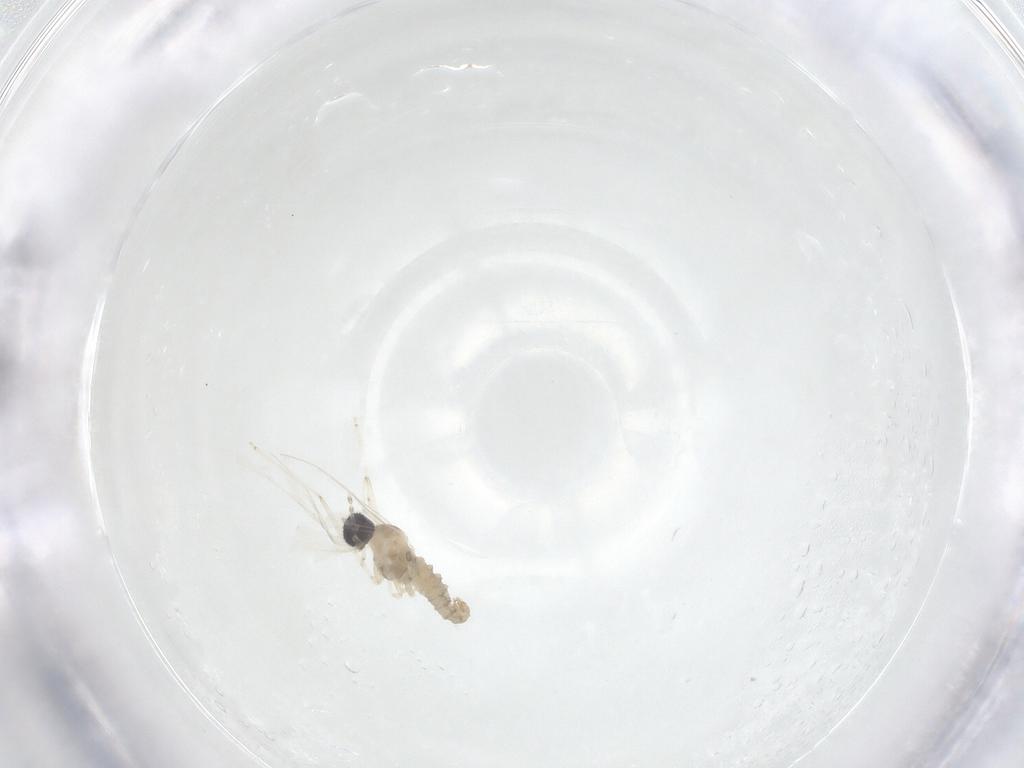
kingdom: Animalia
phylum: Arthropoda
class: Insecta
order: Diptera
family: Cecidomyiidae
